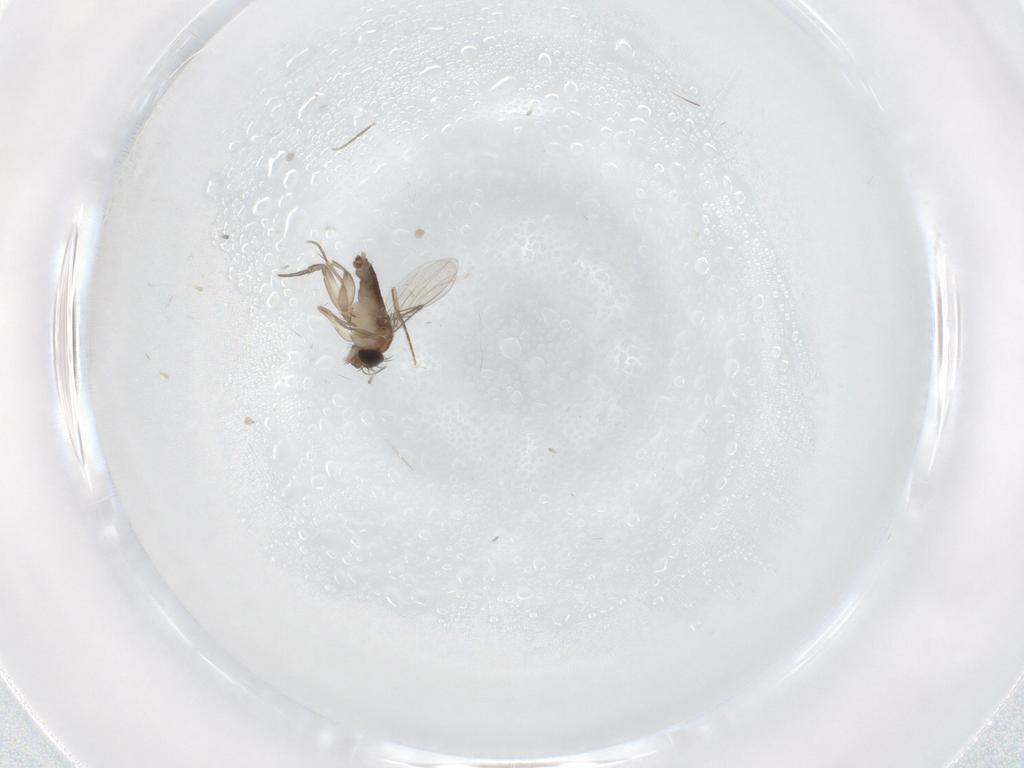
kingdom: Animalia
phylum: Arthropoda
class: Insecta
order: Diptera
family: Phoridae
